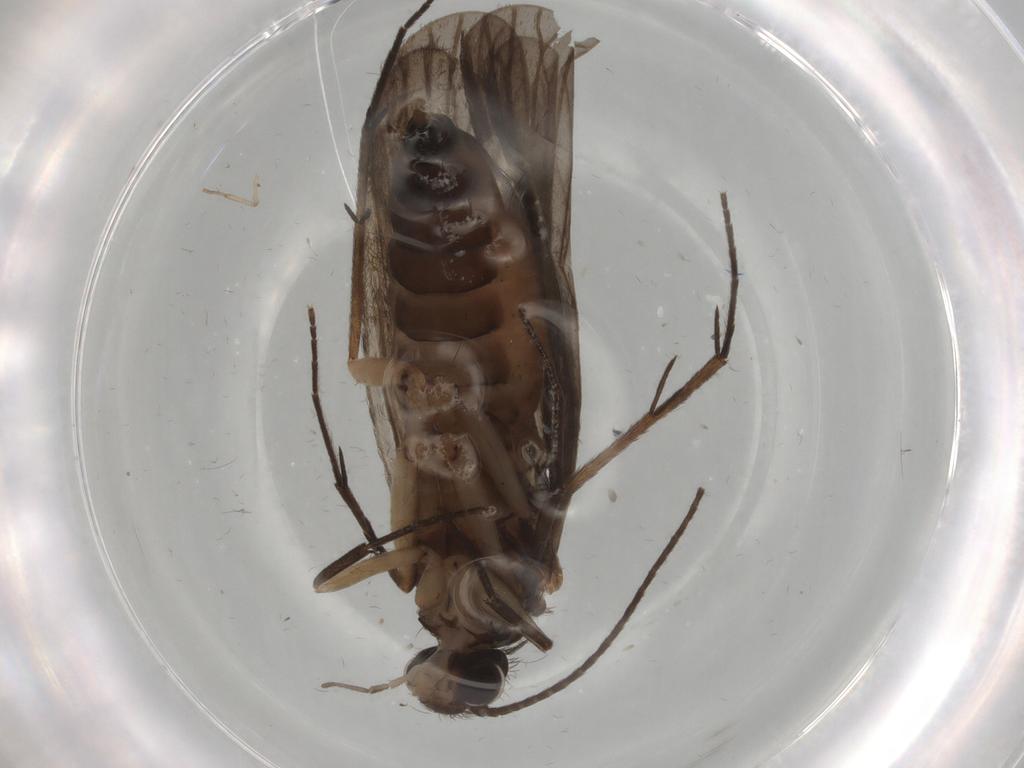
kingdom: Animalia
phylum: Arthropoda
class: Insecta
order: Trichoptera
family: Philopotamidae
